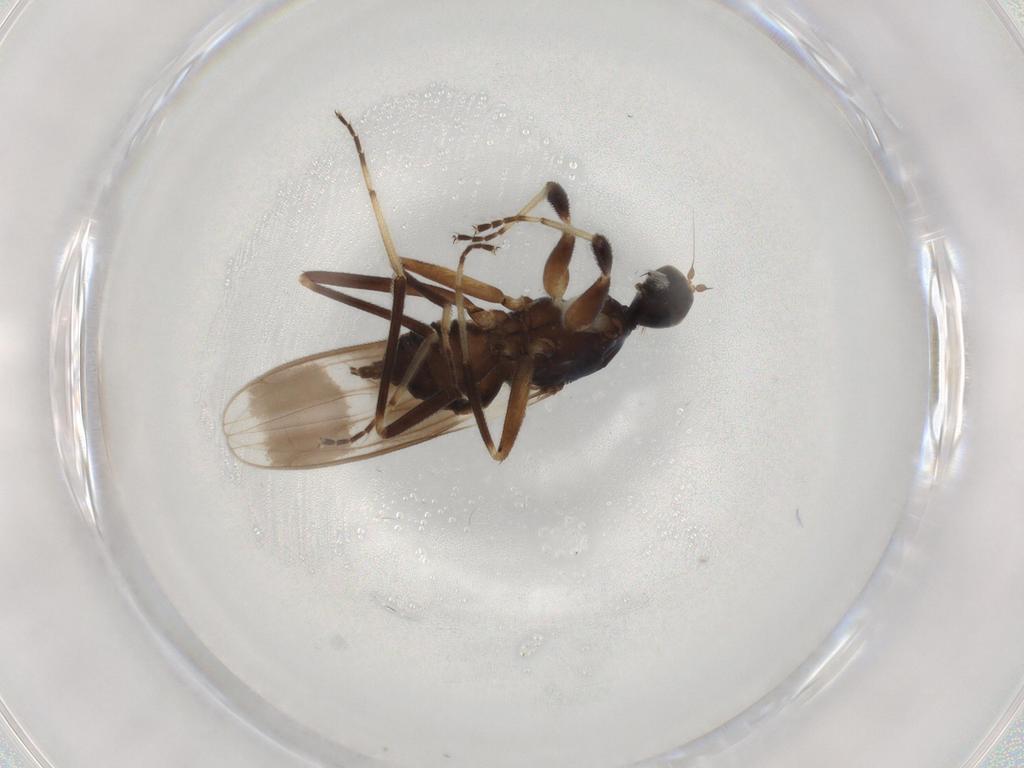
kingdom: Animalia
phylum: Arthropoda
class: Insecta
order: Diptera
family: Hybotidae
